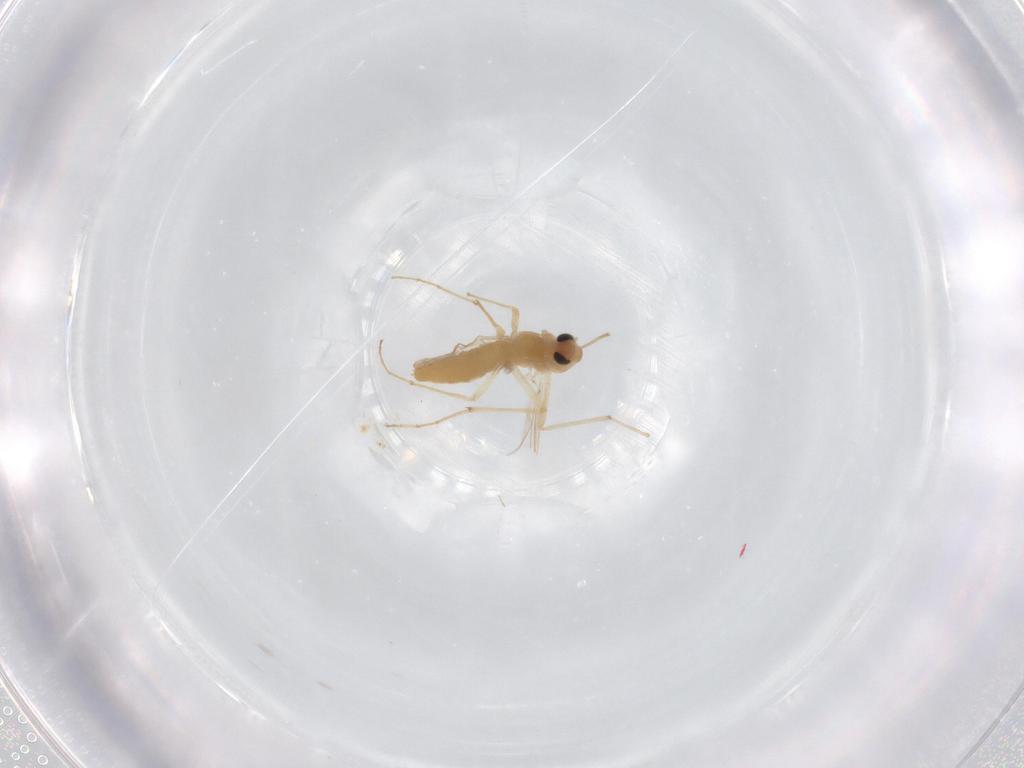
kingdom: Animalia
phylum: Arthropoda
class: Insecta
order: Diptera
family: Chironomidae
